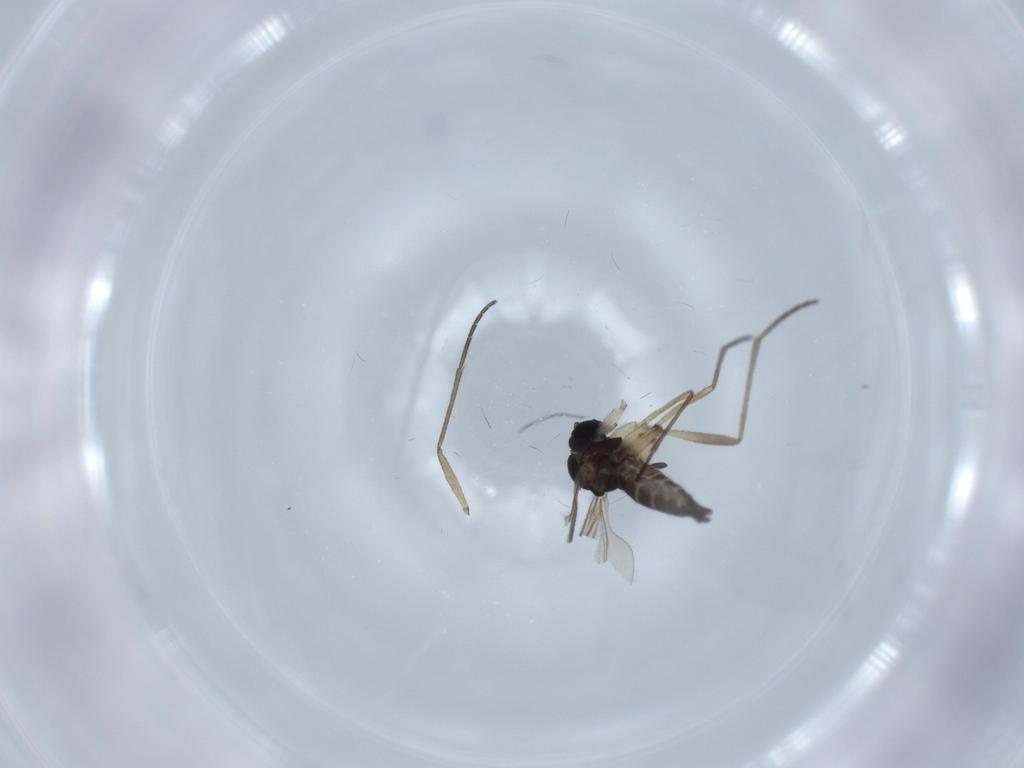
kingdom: Animalia
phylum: Arthropoda
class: Insecta
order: Diptera
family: Sciaridae
